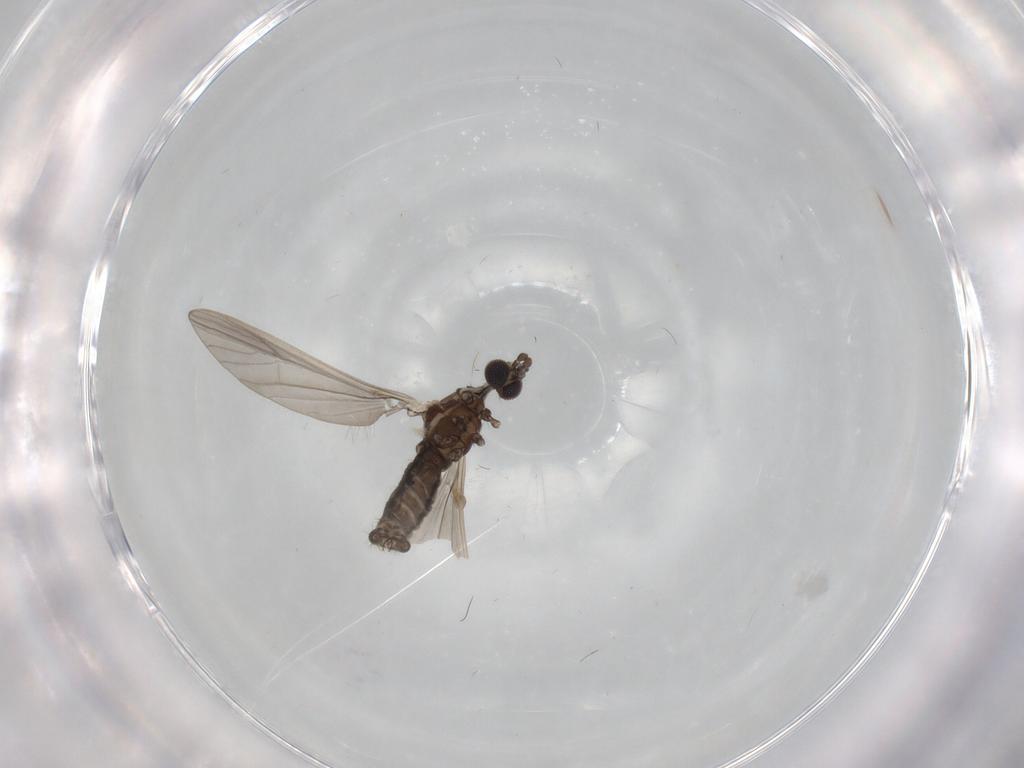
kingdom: Animalia
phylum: Arthropoda
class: Insecta
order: Diptera
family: Limoniidae
